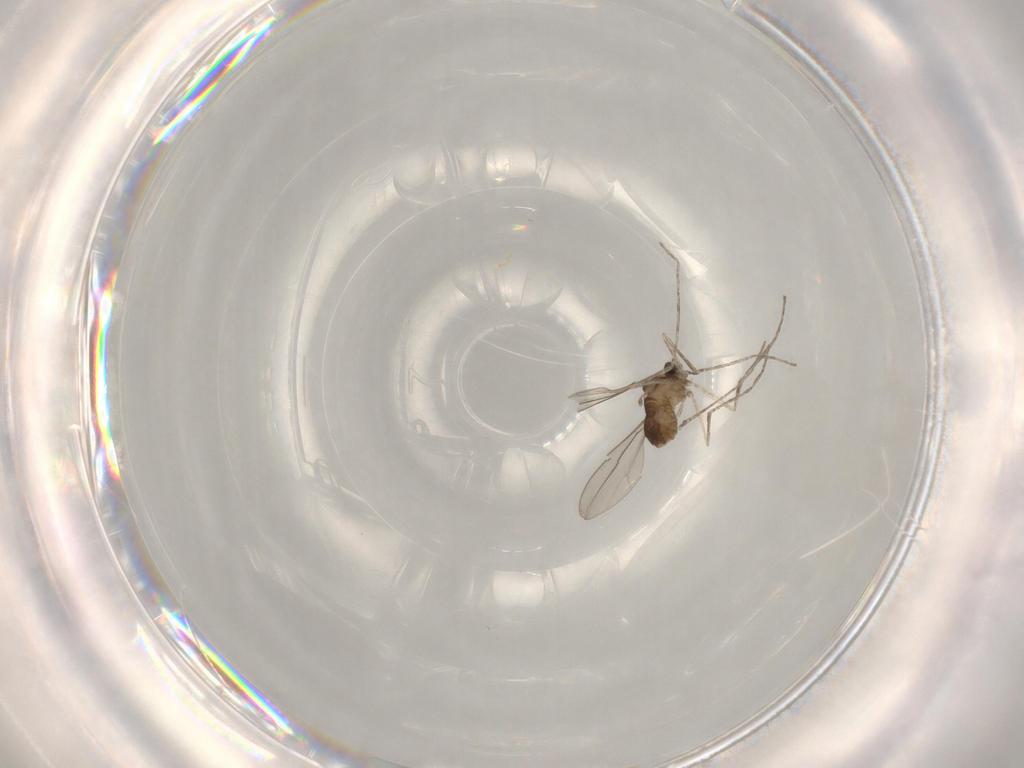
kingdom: Animalia
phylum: Arthropoda
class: Insecta
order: Diptera
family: Cecidomyiidae
